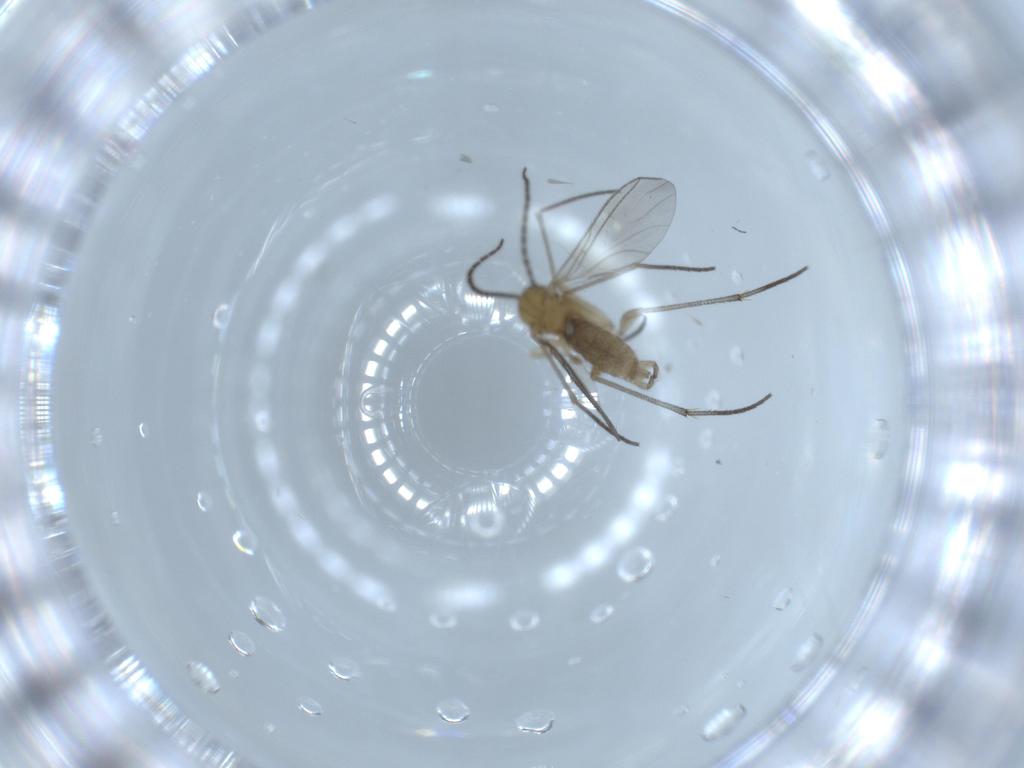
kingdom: Animalia
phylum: Arthropoda
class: Insecta
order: Diptera
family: Sciaridae
